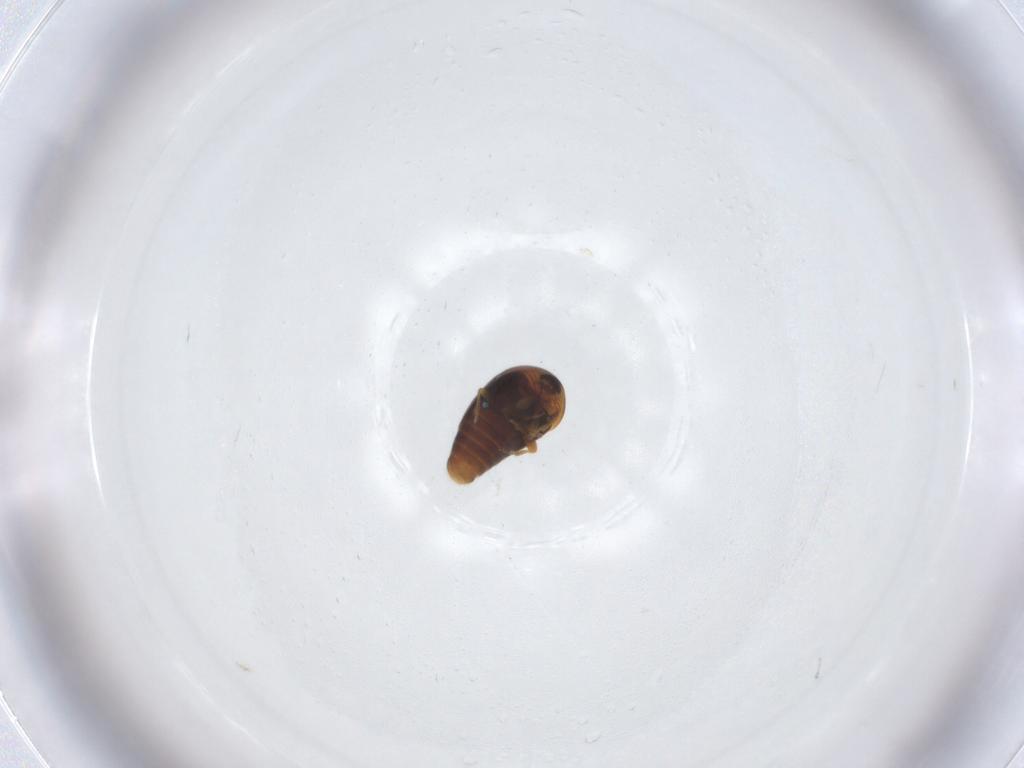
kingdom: Animalia
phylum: Arthropoda
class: Insecta
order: Coleoptera
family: Corylophidae
